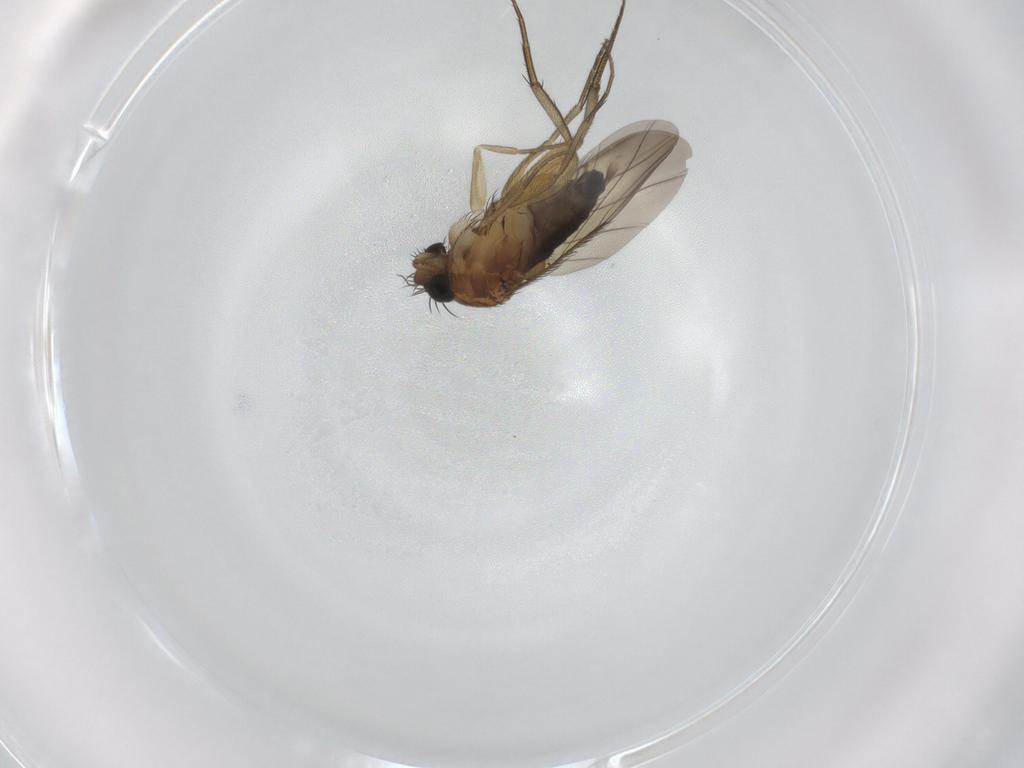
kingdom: Animalia
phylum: Arthropoda
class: Insecta
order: Diptera
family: Phoridae
